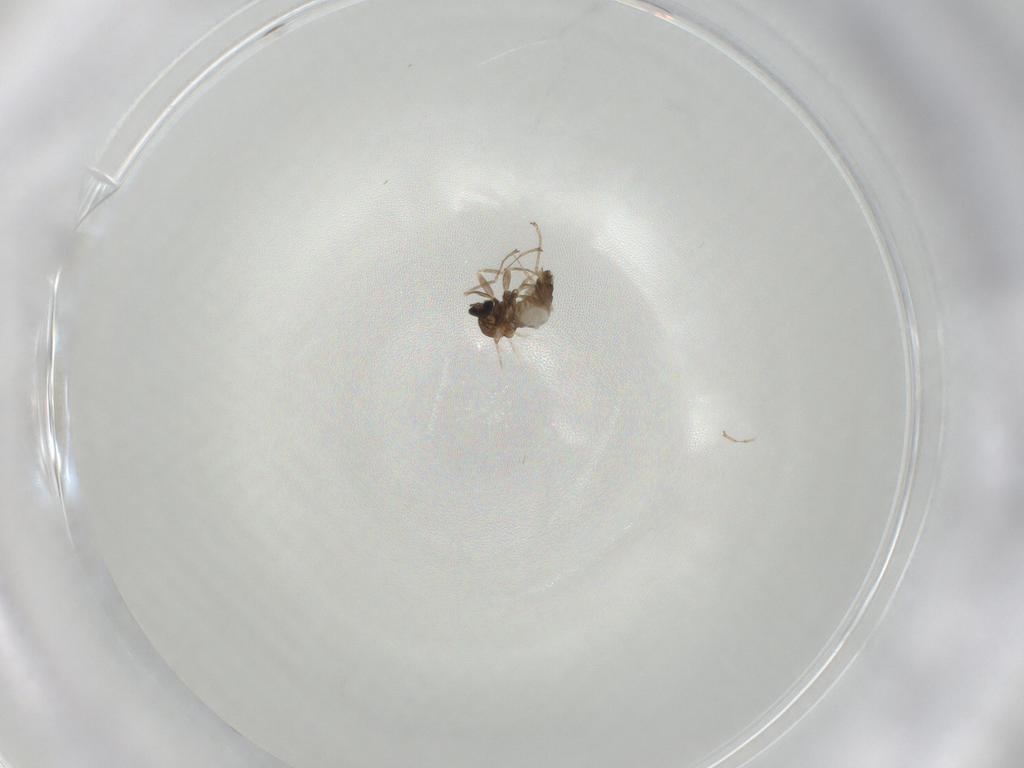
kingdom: Animalia
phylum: Arthropoda
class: Insecta
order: Diptera
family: Cecidomyiidae
